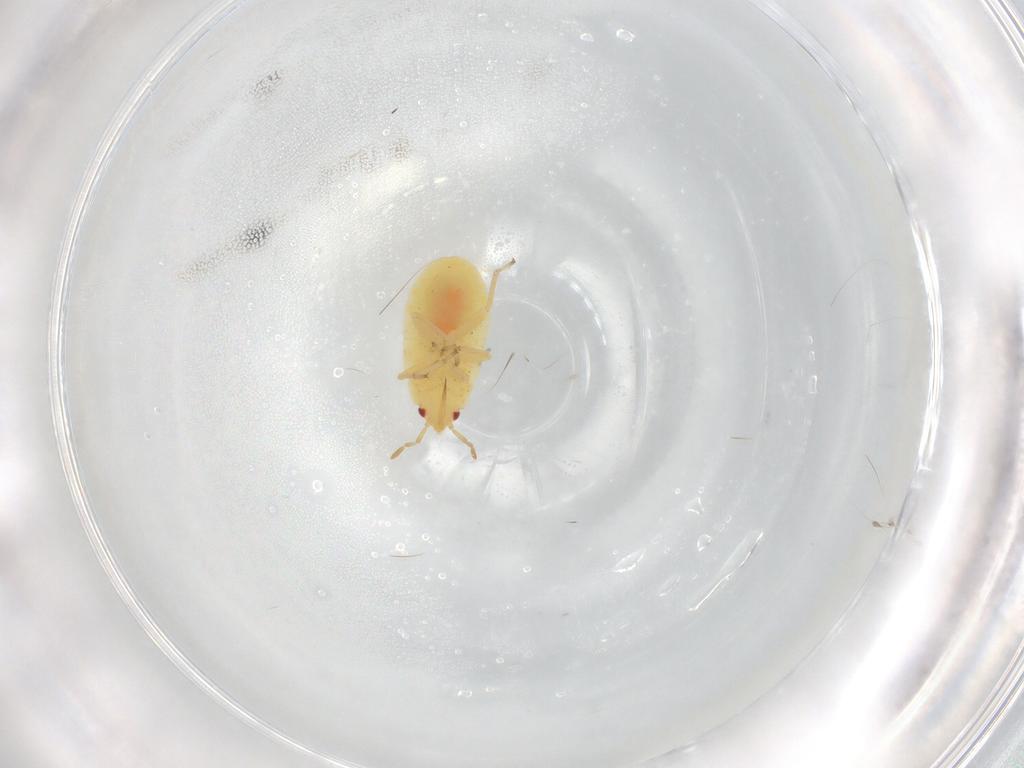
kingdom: Animalia
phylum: Arthropoda
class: Insecta
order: Hemiptera
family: Anthocoridae
